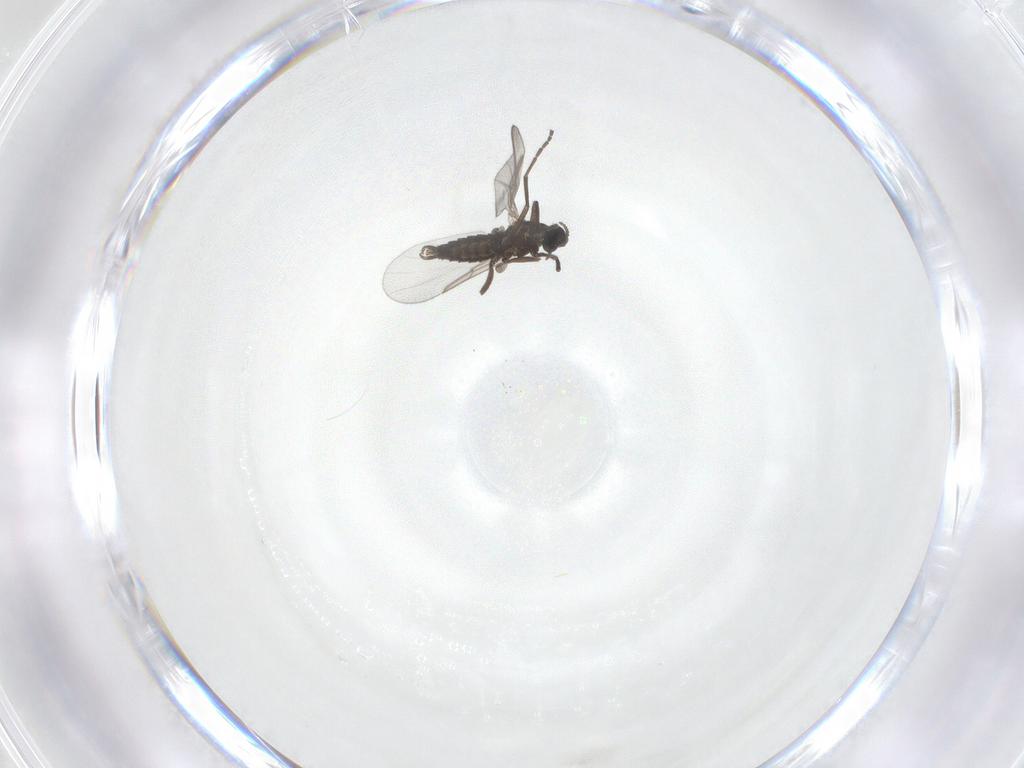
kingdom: Animalia
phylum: Arthropoda
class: Insecta
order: Diptera
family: Cecidomyiidae
